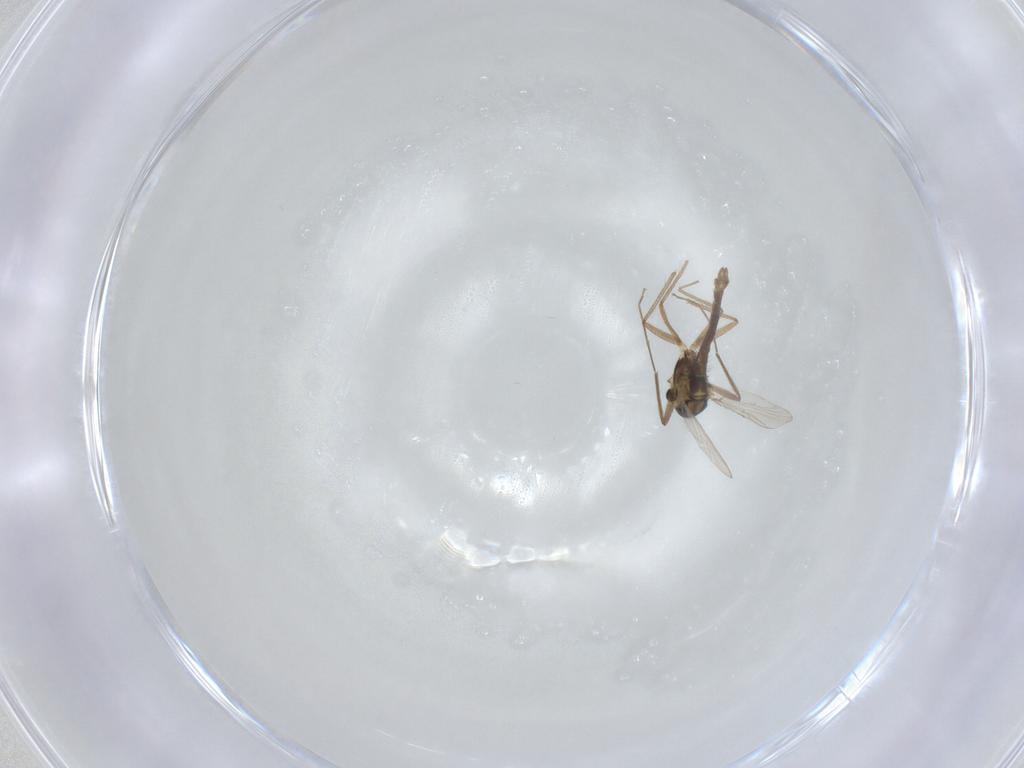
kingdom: Animalia
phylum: Arthropoda
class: Insecta
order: Diptera
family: Chironomidae
